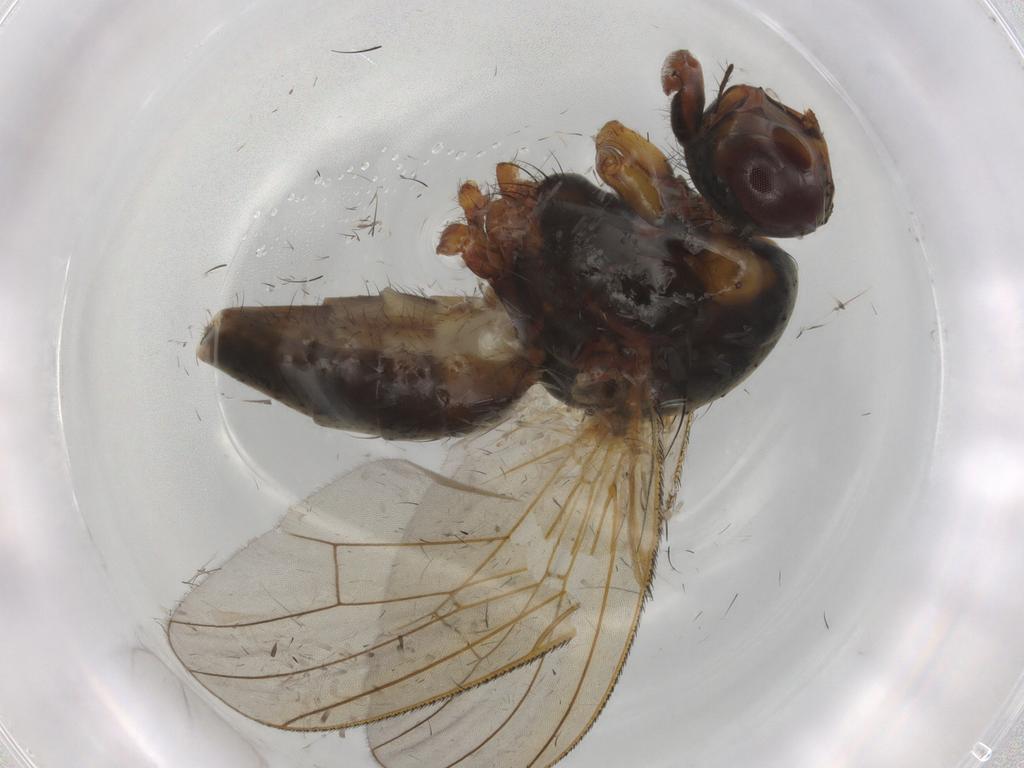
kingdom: Animalia
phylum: Arthropoda
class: Insecta
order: Diptera
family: Anthomyiidae
